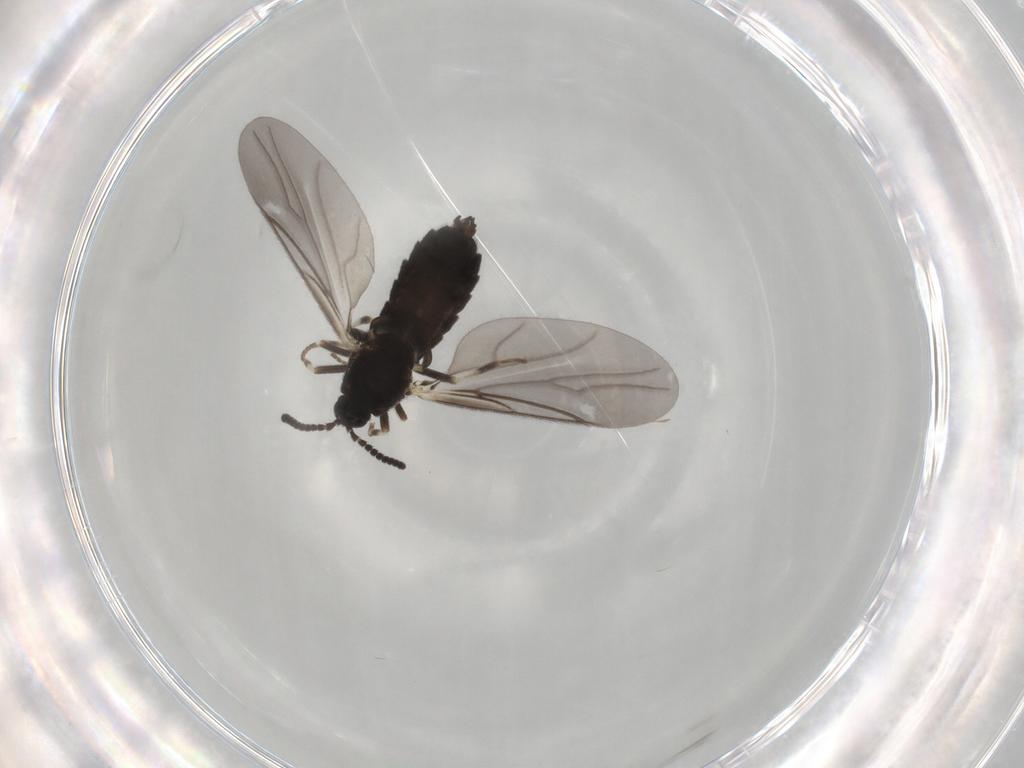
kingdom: Animalia
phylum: Arthropoda
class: Insecta
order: Diptera
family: Scatopsidae
